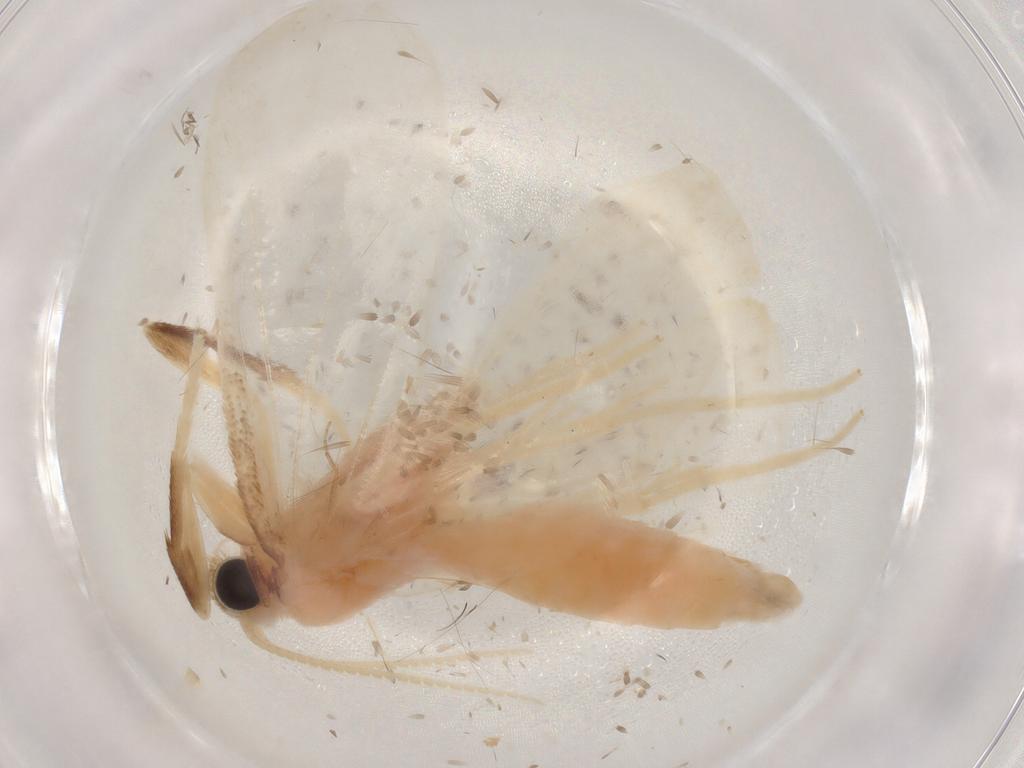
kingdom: Animalia
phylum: Arthropoda
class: Insecta
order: Lepidoptera
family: Crambidae
